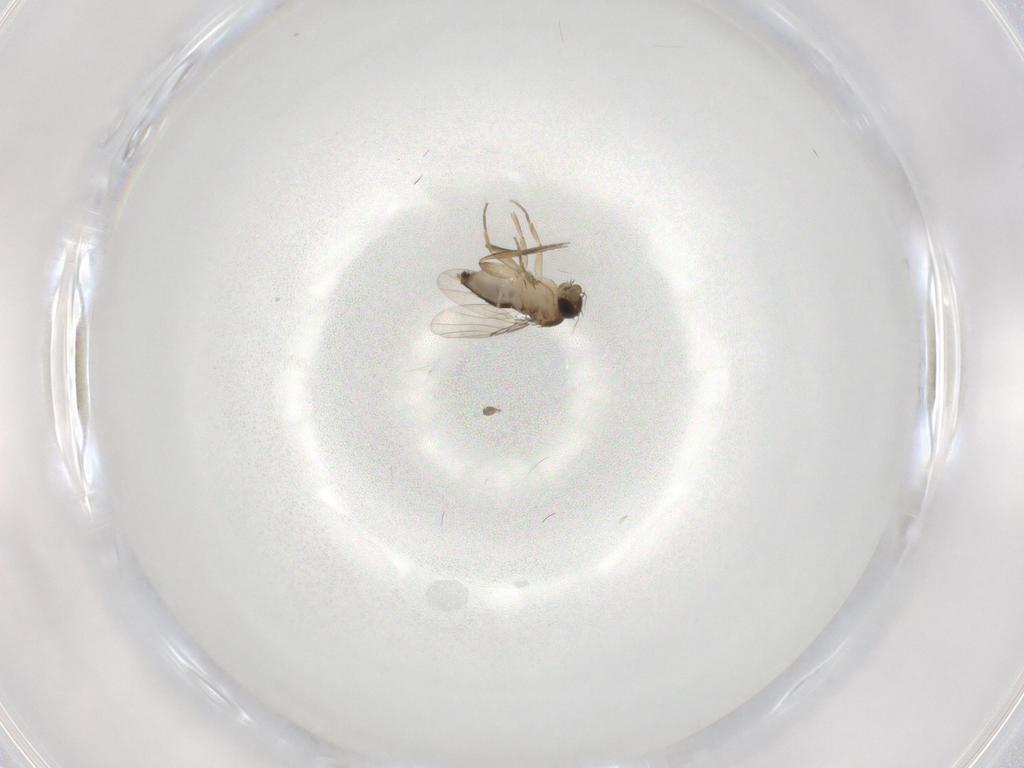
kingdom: Animalia
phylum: Arthropoda
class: Insecta
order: Diptera
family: Phoridae
